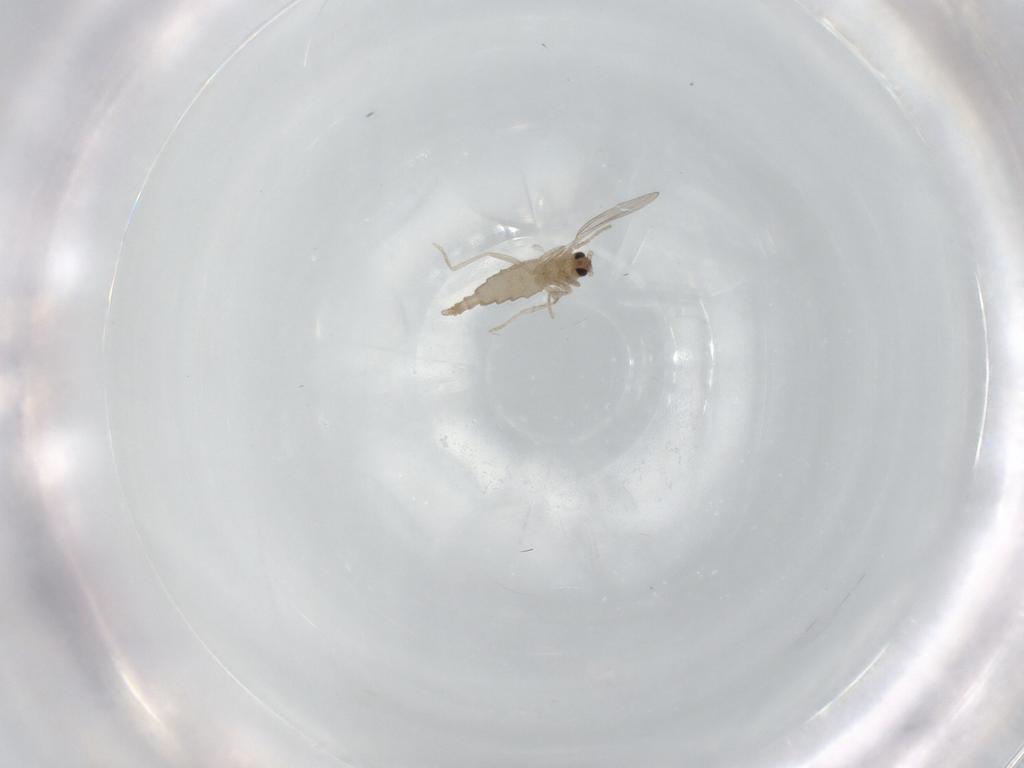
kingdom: Animalia
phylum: Arthropoda
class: Insecta
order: Diptera
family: Cecidomyiidae
